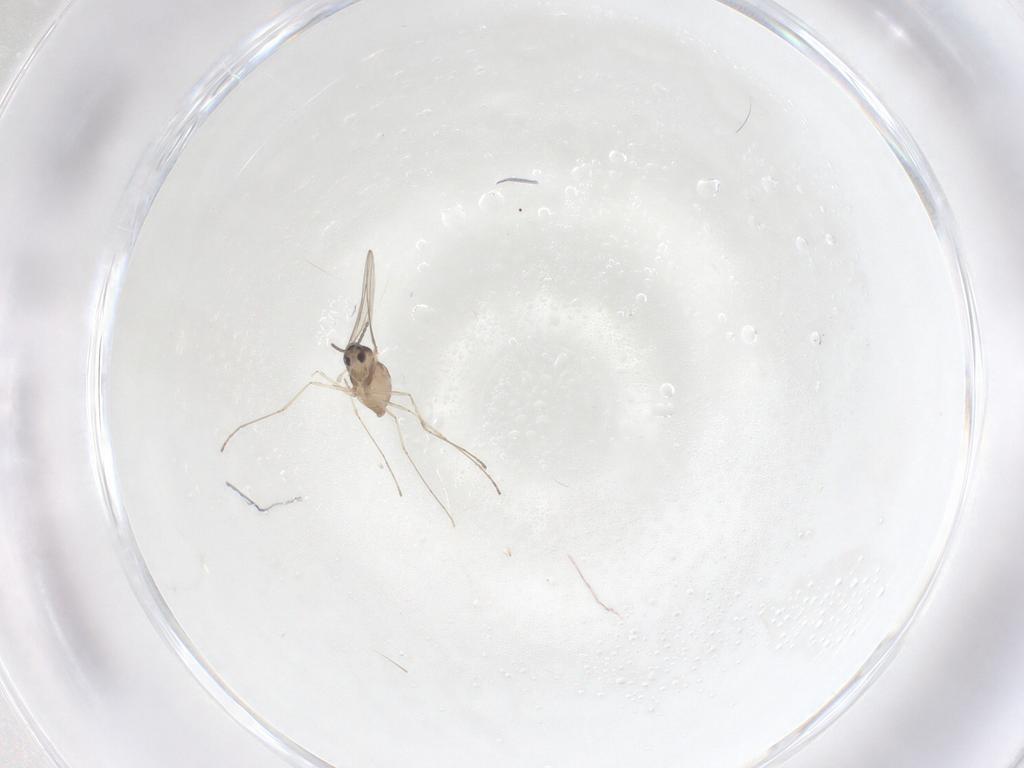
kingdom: Animalia
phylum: Arthropoda
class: Insecta
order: Diptera
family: Cecidomyiidae
